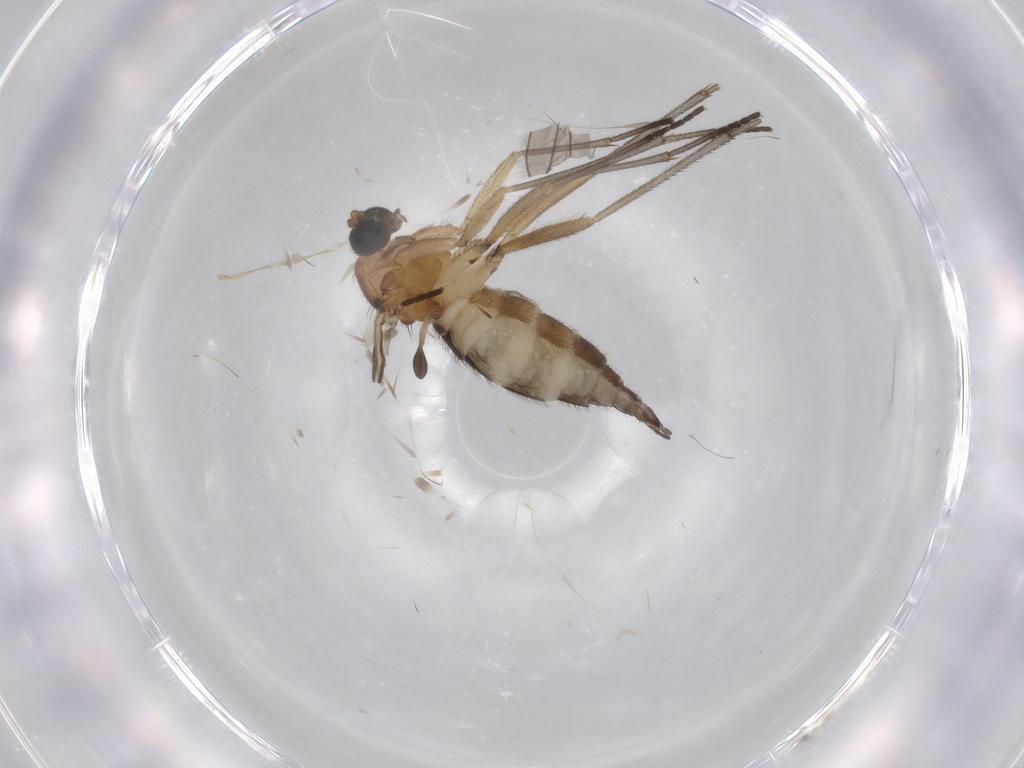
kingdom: Animalia
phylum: Arthropoda
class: Insecta
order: Diptera
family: Sciaridae
